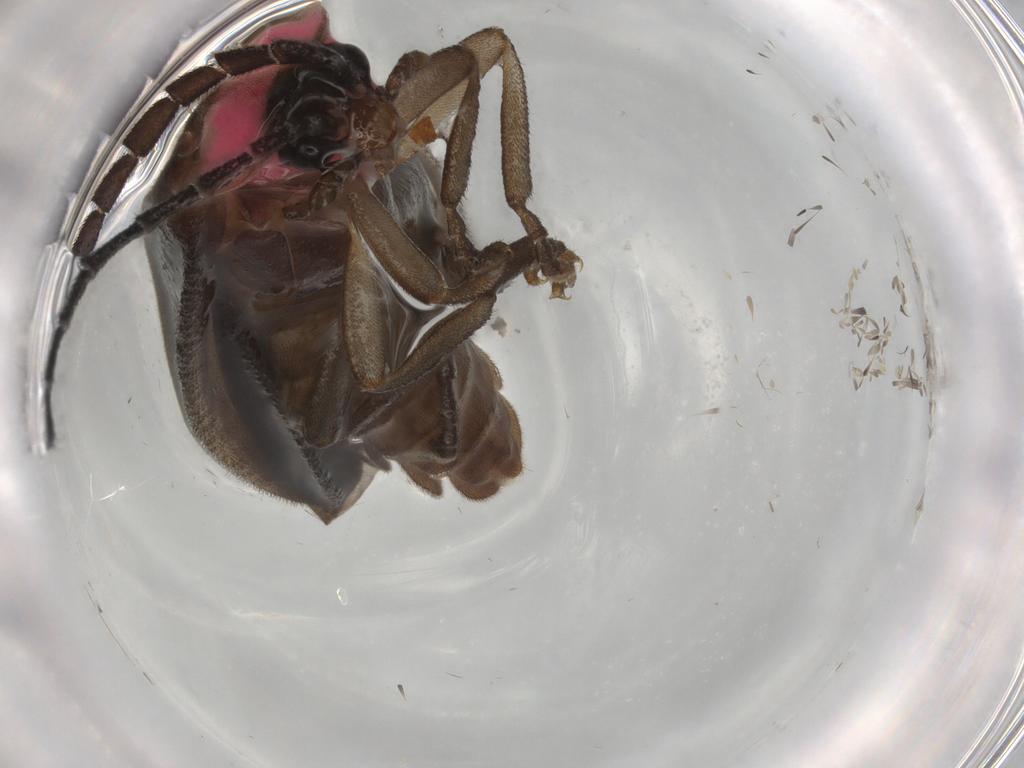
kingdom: Animalia
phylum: Arthropoda
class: Insecta
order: Coleoptera
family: Lampyridae
